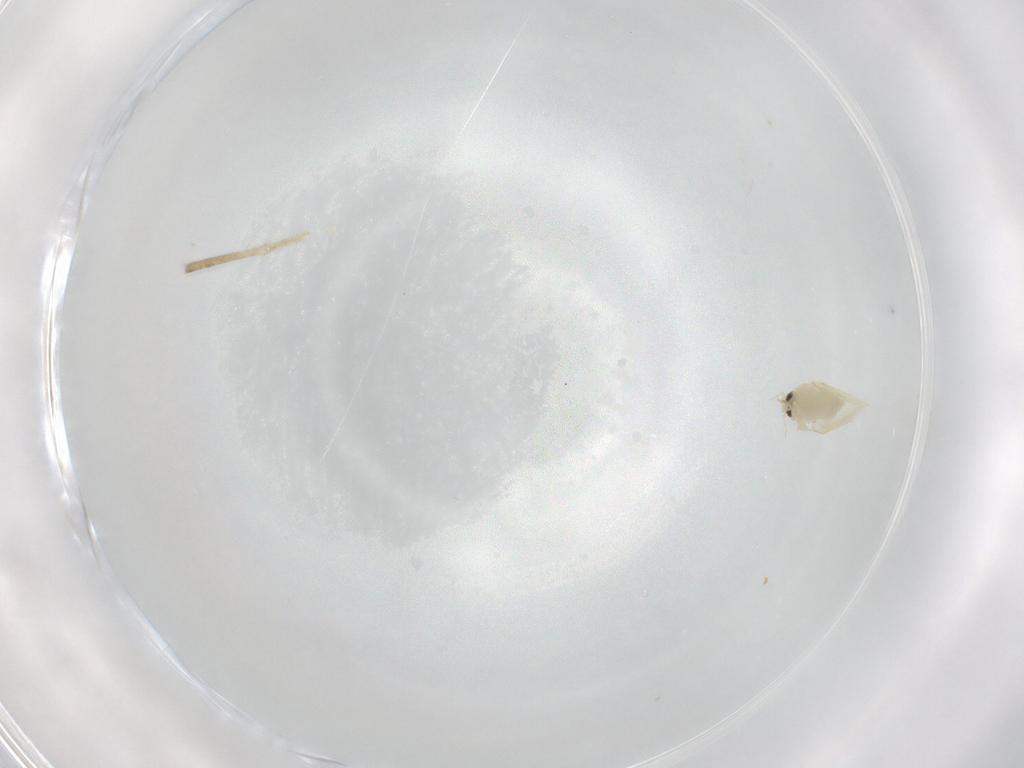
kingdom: Animalia
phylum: Arthropoda
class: Insecta
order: Hemiptera
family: Aleyrodidae
